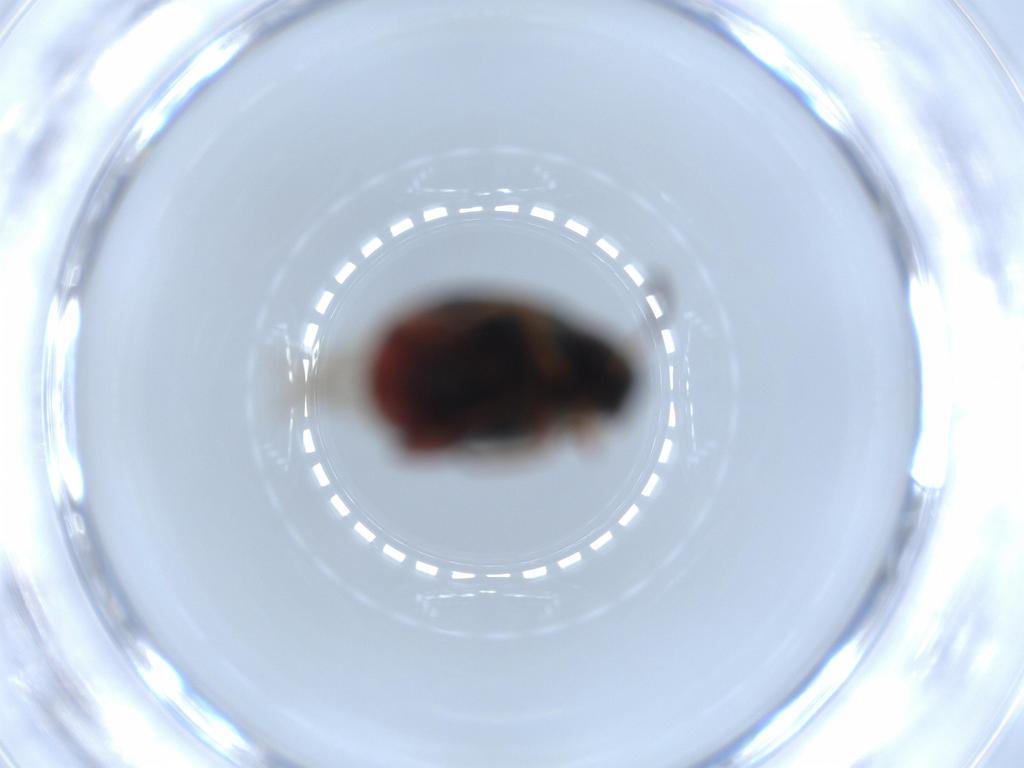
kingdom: Animalia
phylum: Arthropoda
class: Insecta
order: Coleoptera
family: Chrysomelidae
